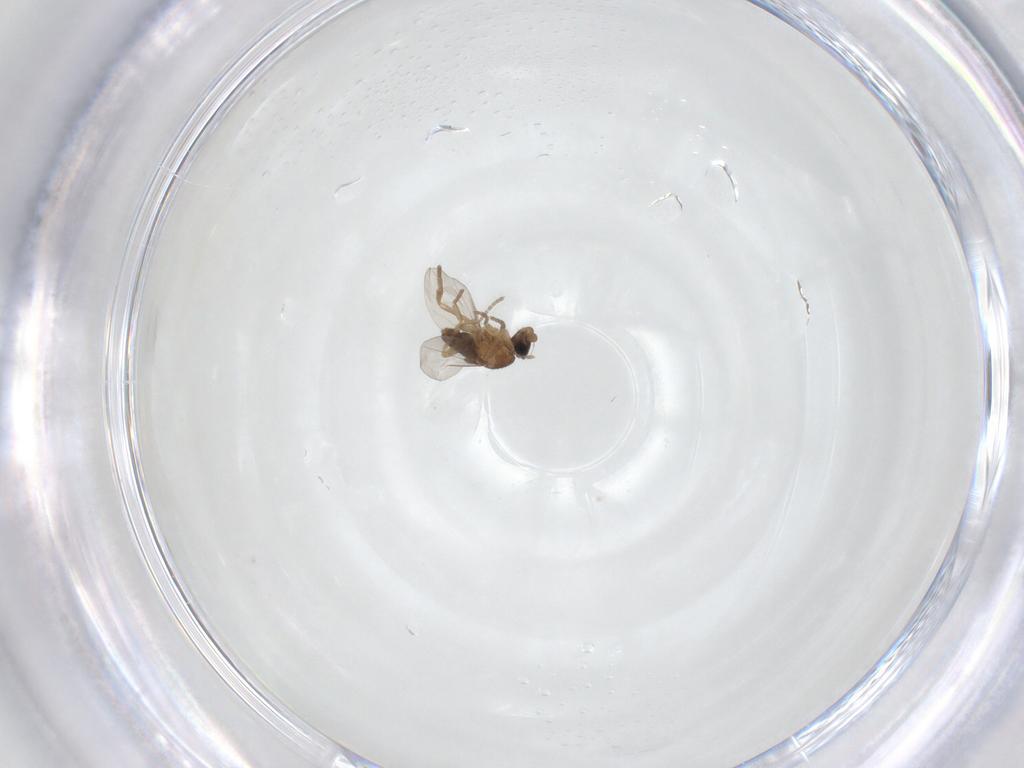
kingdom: Animalia
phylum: Arthropoda
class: Insecta
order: Diptera
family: Phoridae
